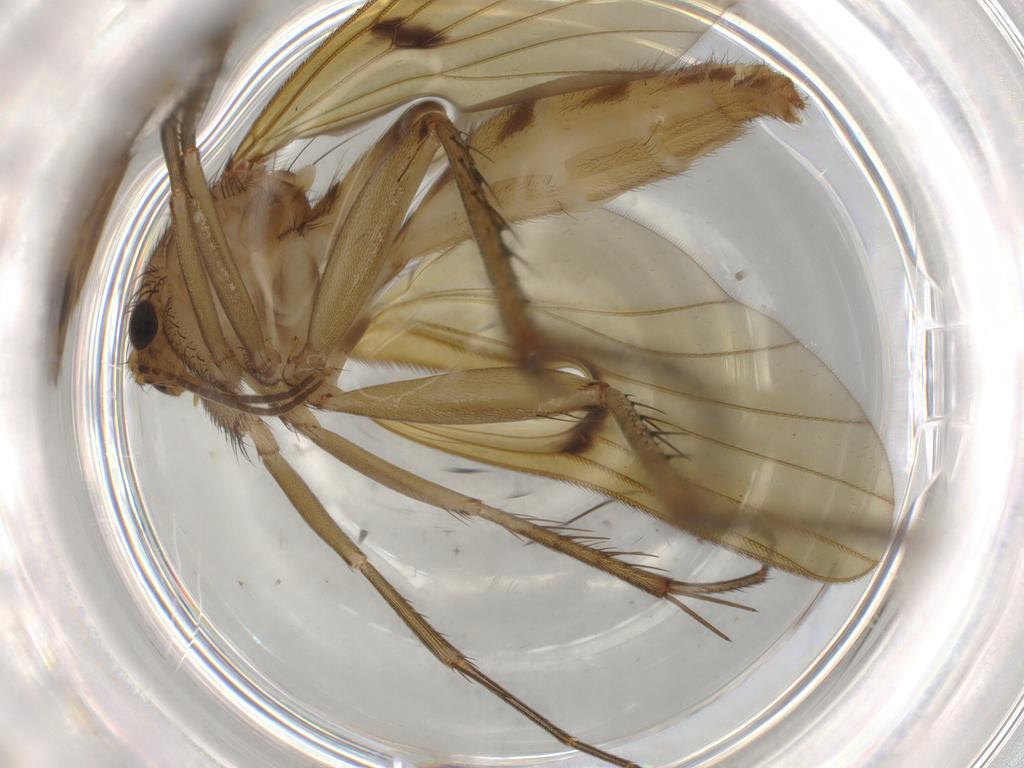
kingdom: Animalia
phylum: Arthropoda
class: Insecta
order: Diptera
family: Mycetophilidae
